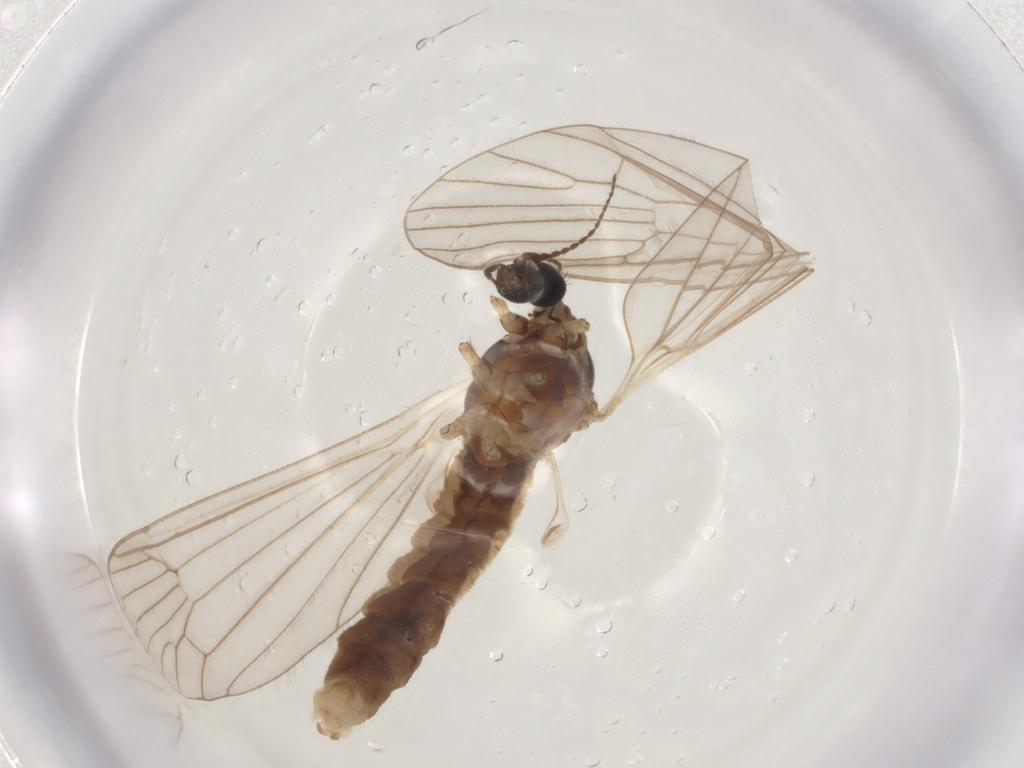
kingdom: Animalia
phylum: Arthropoda
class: Insecta
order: Diptera
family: Limoniidae
